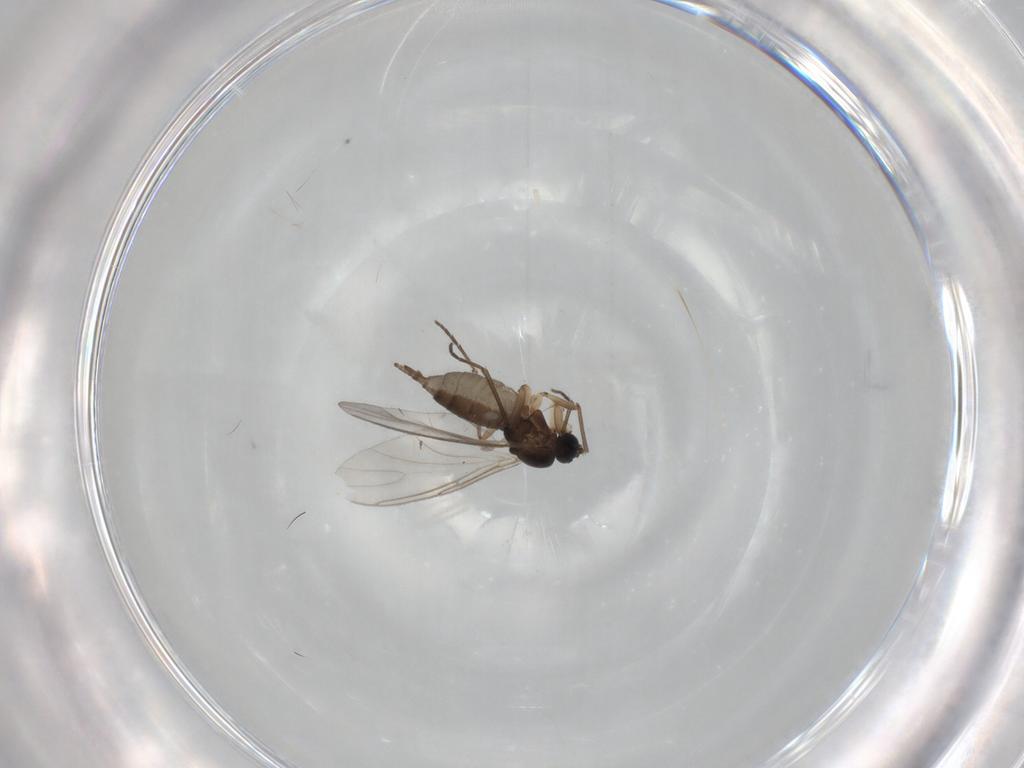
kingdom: Animalia
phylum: Arthropoda
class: Insecta
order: Diptera
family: Sciaridae
